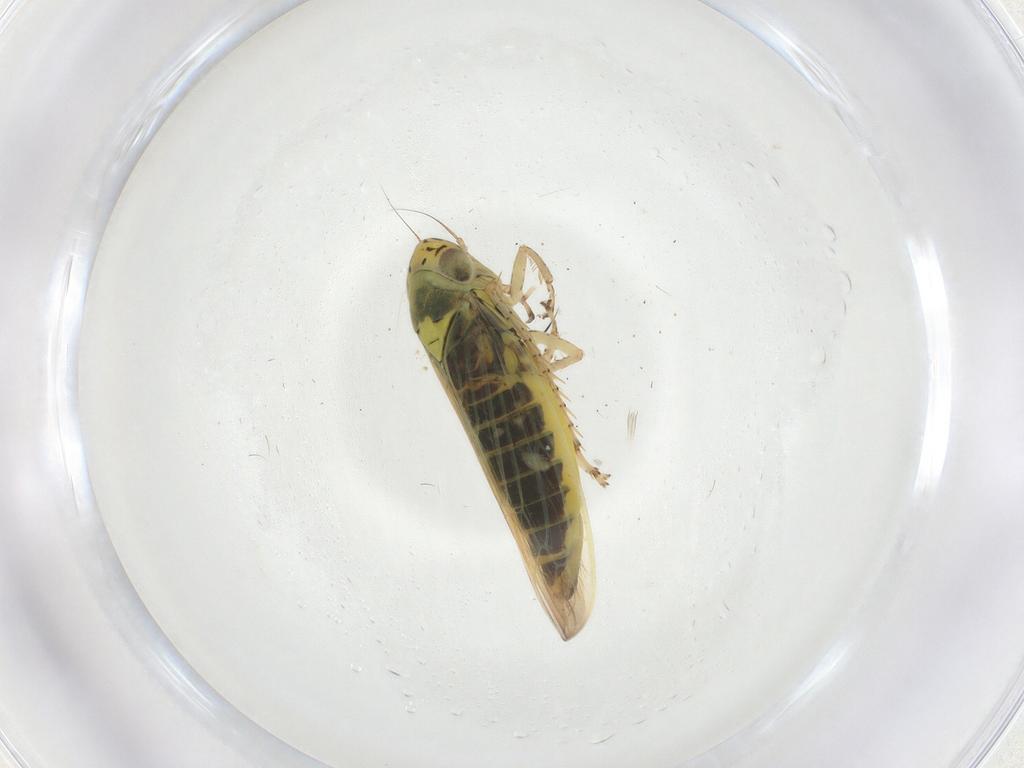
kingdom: Animalia
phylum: Arthropoda
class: Insecta
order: Hemiptera
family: Cicadellidae
